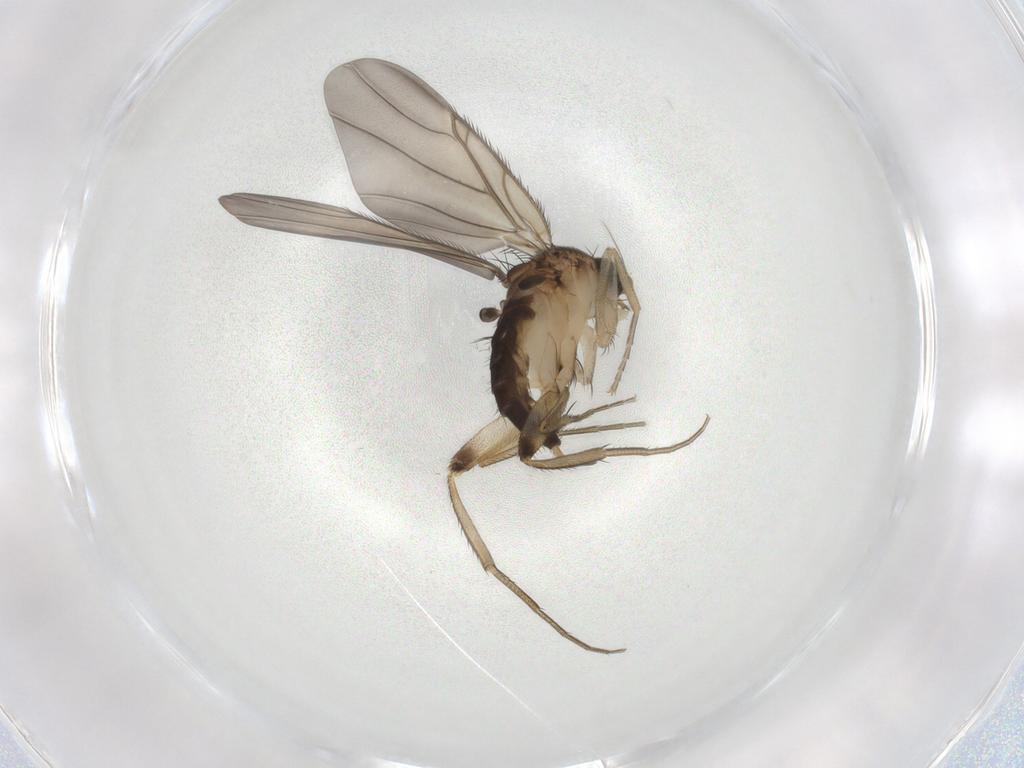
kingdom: Animalia
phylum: Arthropoda
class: Insecta
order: Diptera
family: Phoridae
